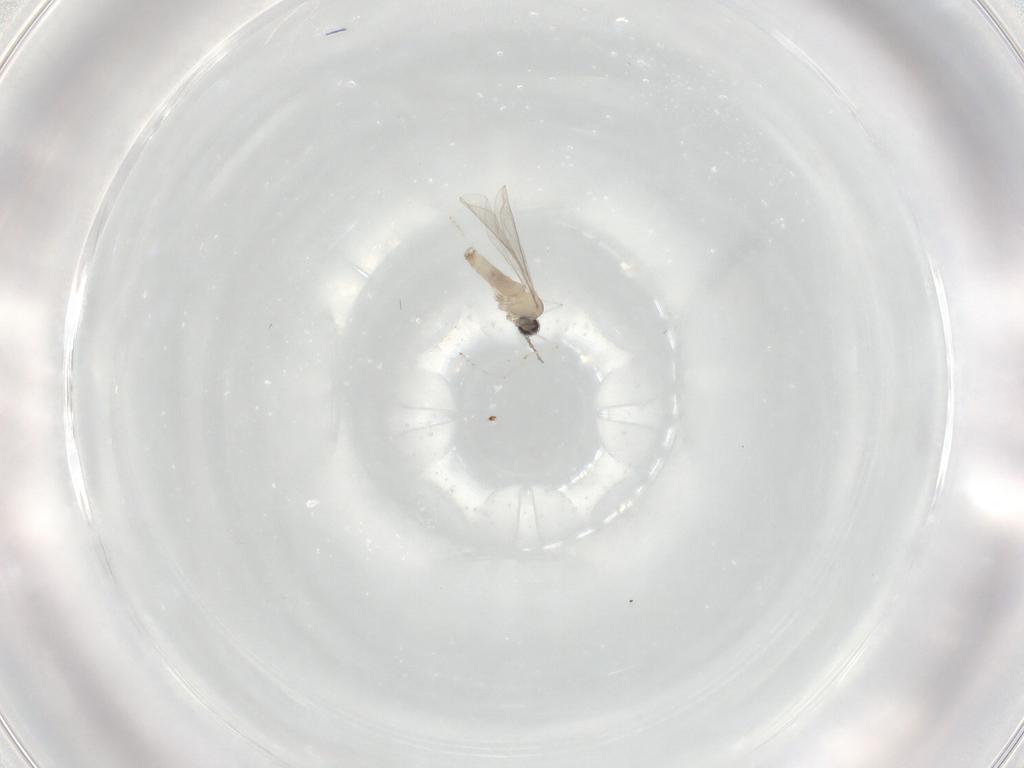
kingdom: Animalia
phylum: Arthropoda
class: Insecta
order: Diptera
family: Cecidomyiidae
